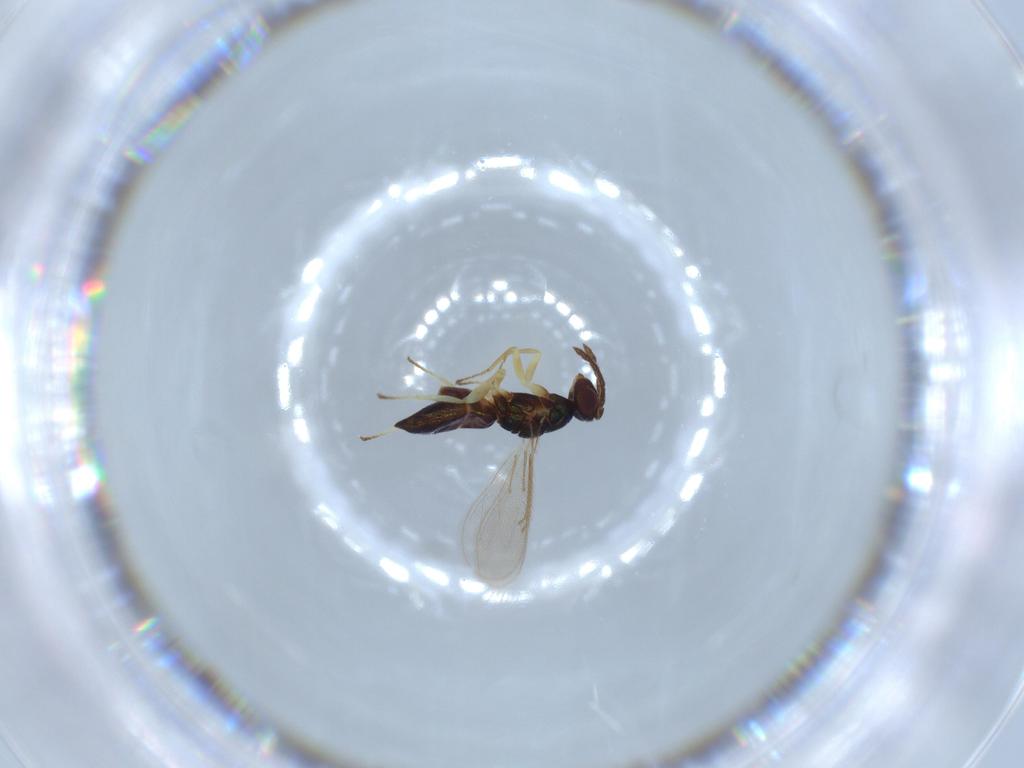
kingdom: Animalia
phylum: Arthropoda
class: Insecta
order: Hymenoptera
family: Eulophidae
